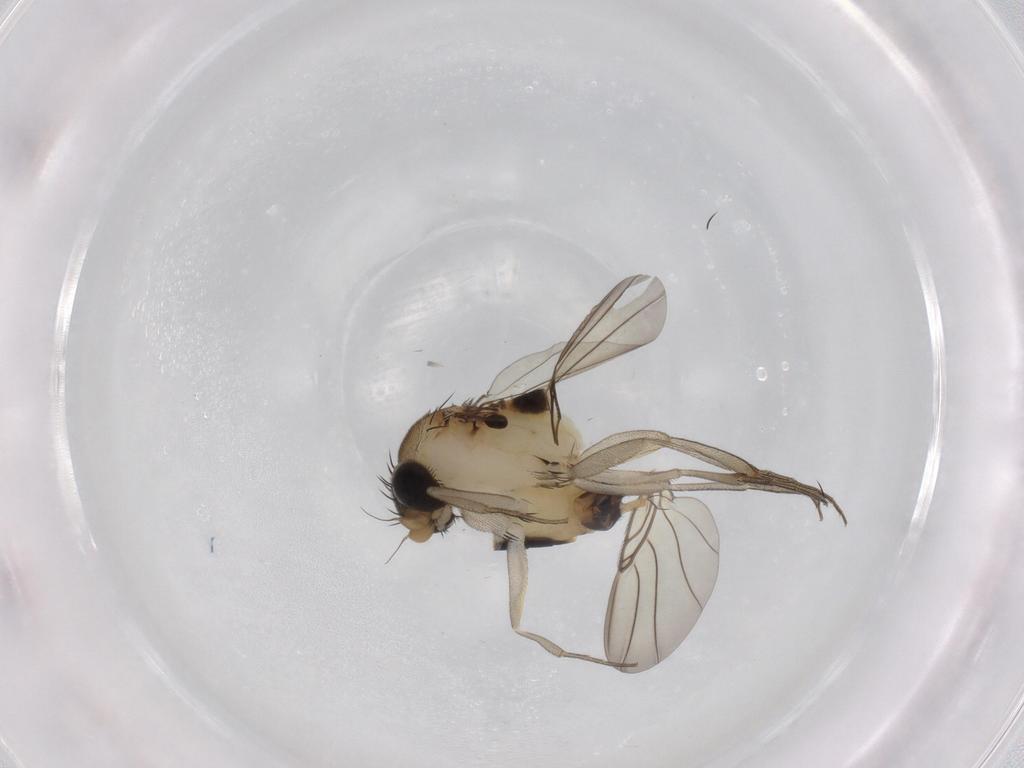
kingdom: Animalia
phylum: Arthropoda
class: Insecta
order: Diptera
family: Phoridae
